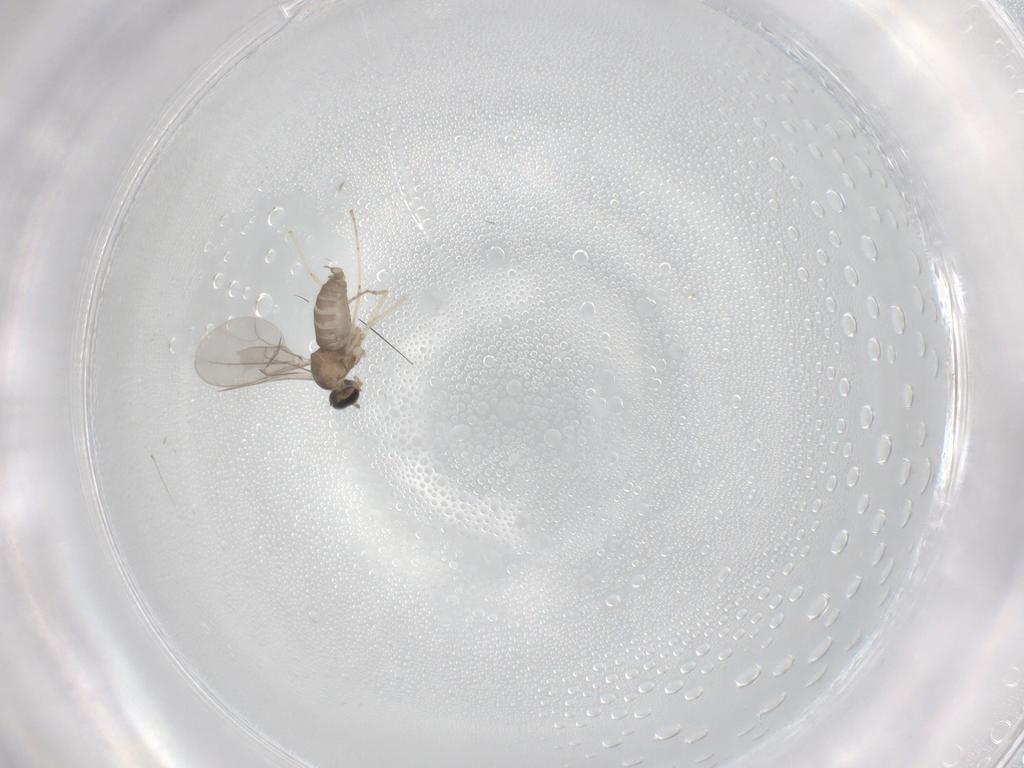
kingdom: Animalia
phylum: Arthropoda
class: Insecta
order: Diptera
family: Cecidomyiidae
